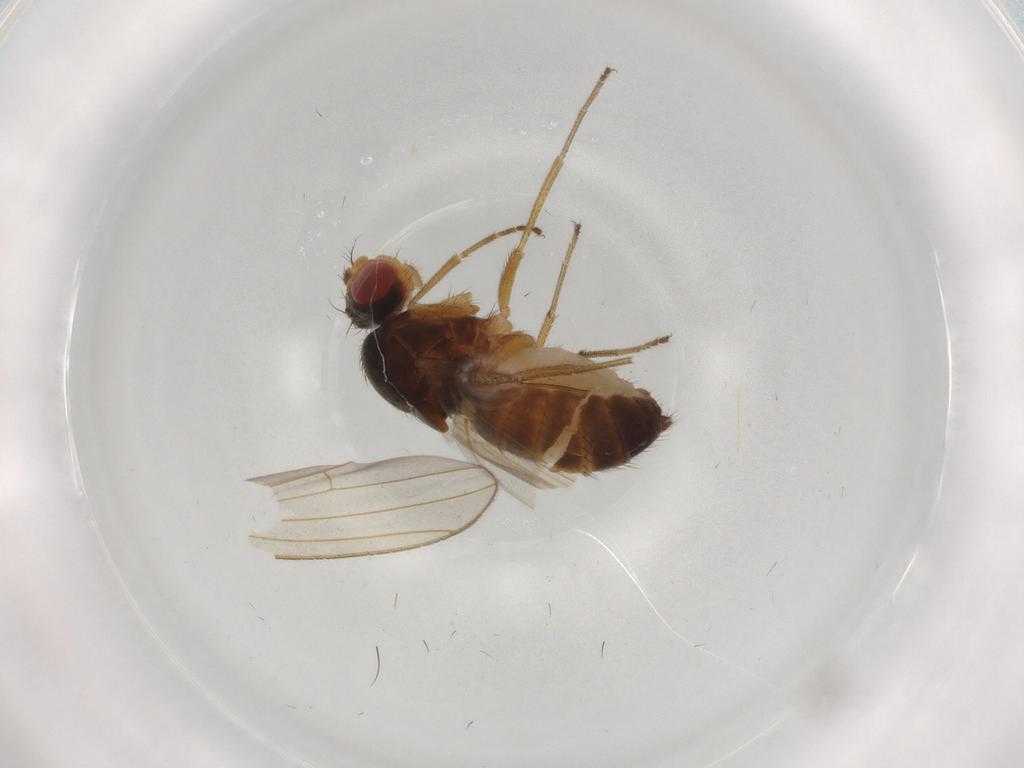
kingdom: Animalia
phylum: Arthropoda
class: Insecta
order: Diptera
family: Drosophilidae
